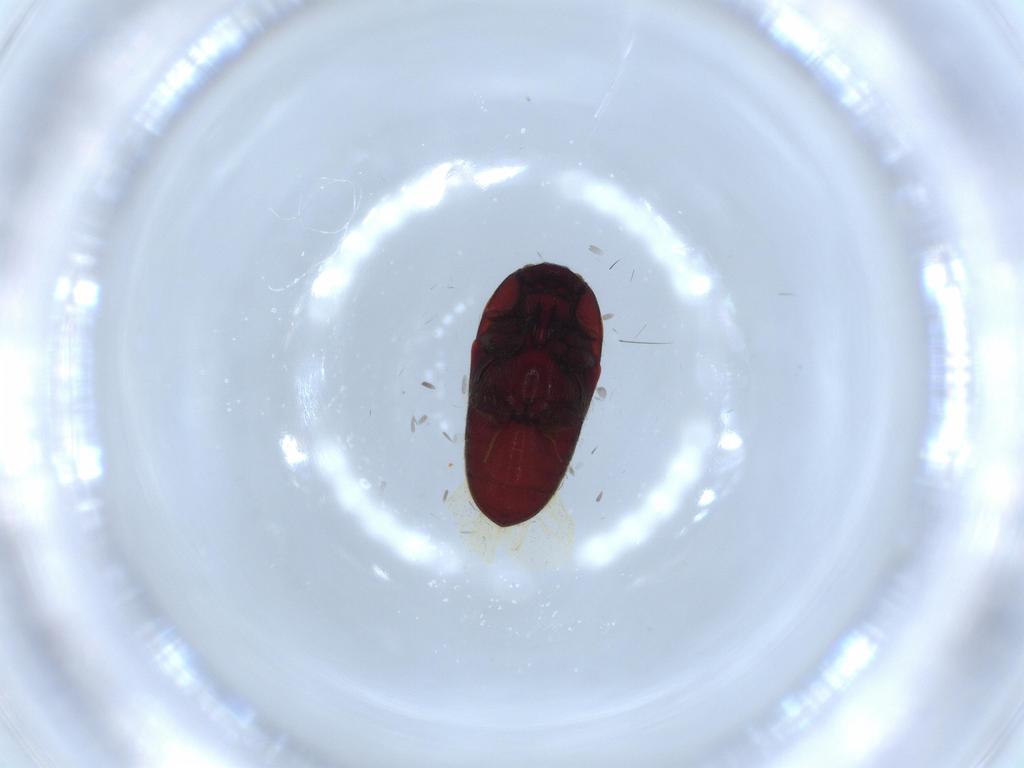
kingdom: Animalia
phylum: Arthropoda
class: Insecta
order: Coleoptera
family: Throscidae
